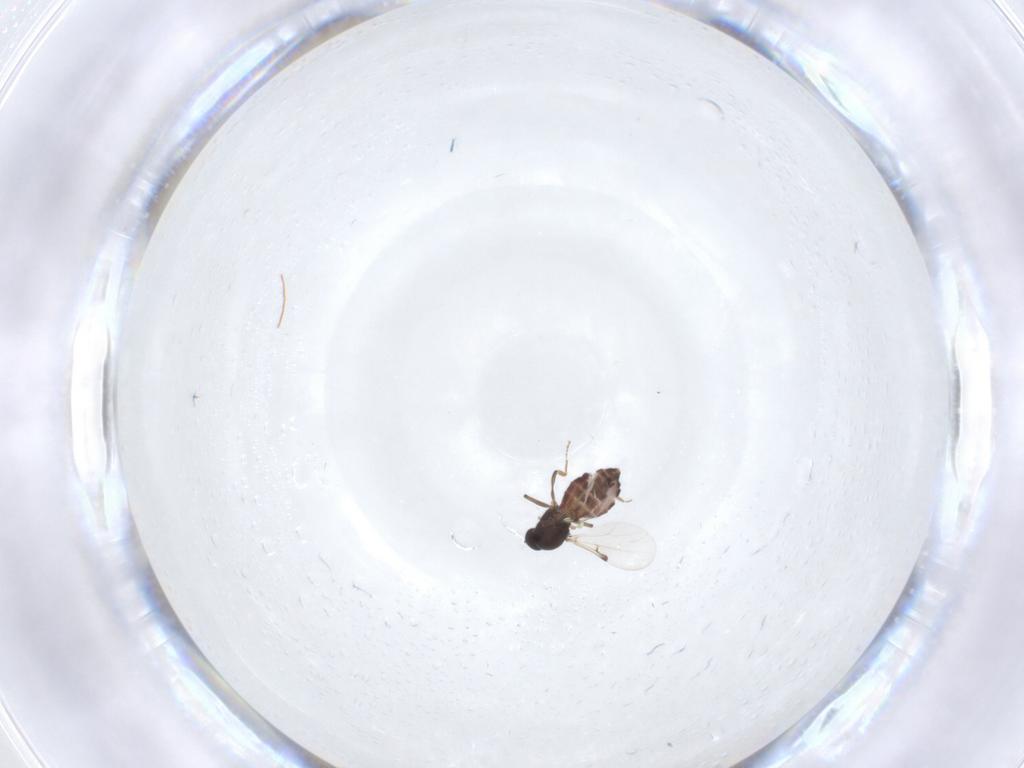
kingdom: Animalia
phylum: Arthropoda
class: Insecta
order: Diptera
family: Ceratopogonidae
